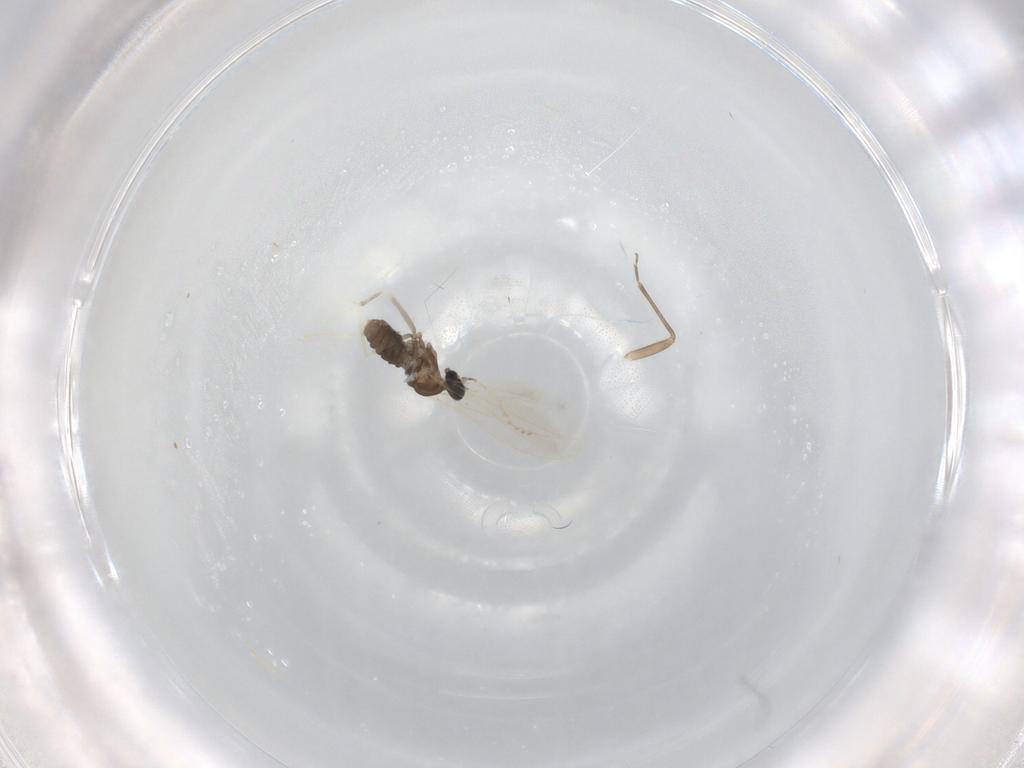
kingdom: Animalia
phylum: Arthropoda
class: Insecta
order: Diptera
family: Cecidomyiidae
